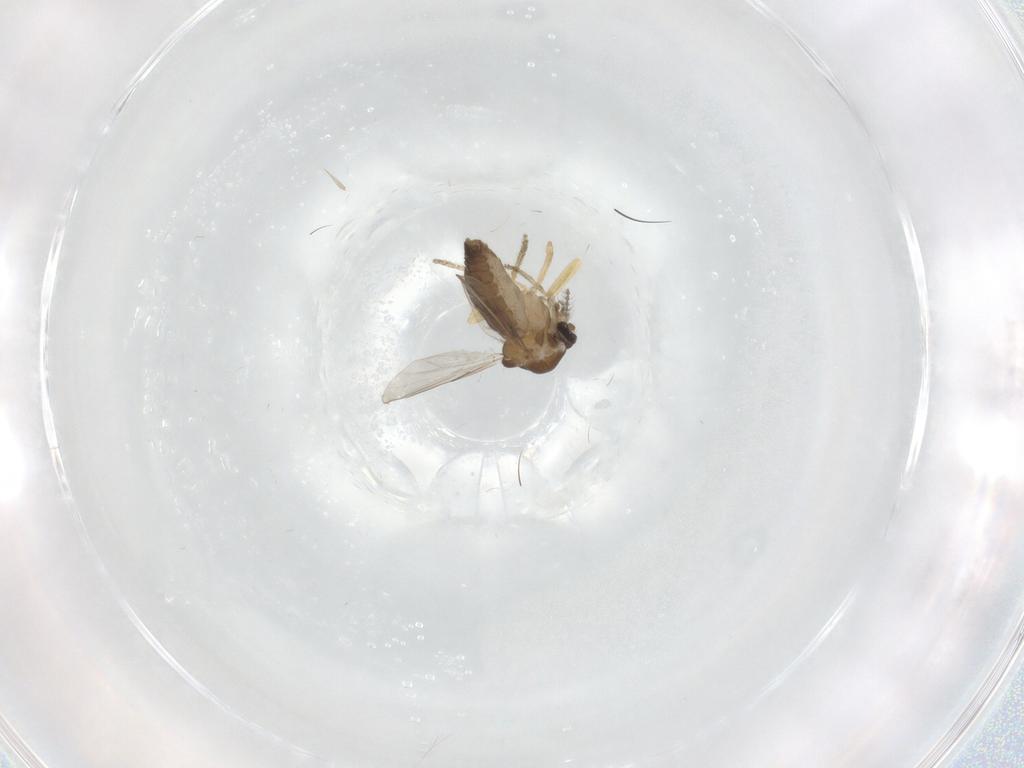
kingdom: Animalia
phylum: Arthropoda
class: Insecta
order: Diptera
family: Ceratopogonidae
